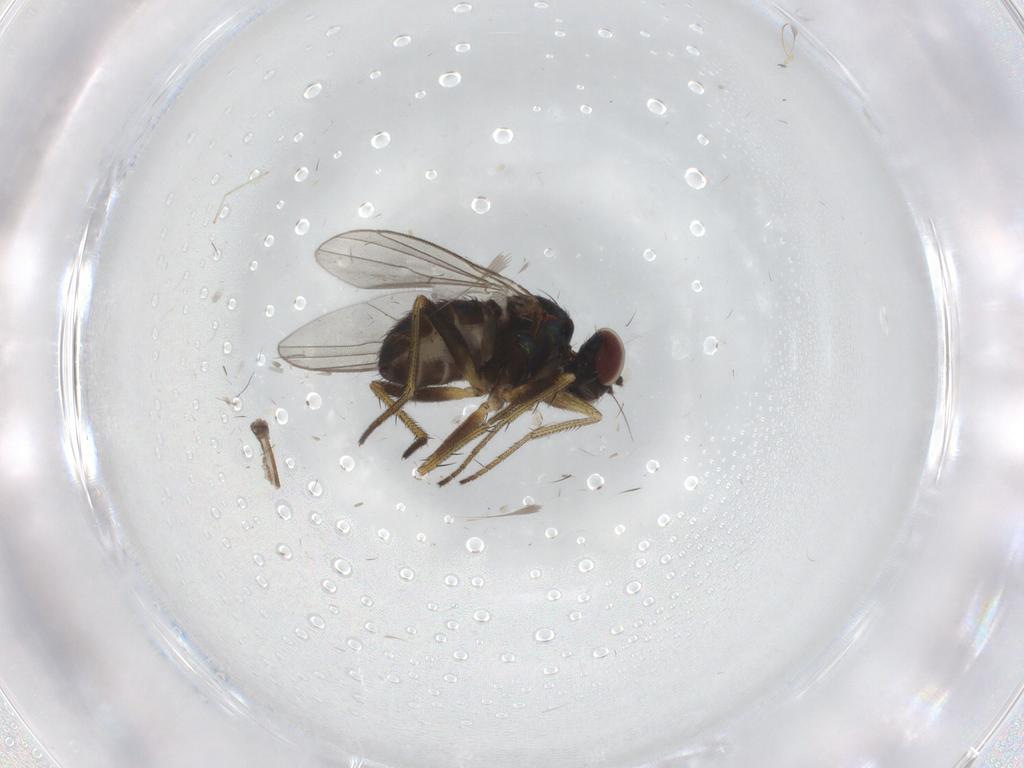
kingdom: Animalia
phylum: Arthropoda
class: Insecta
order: Diptera
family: Dolichopodidae
